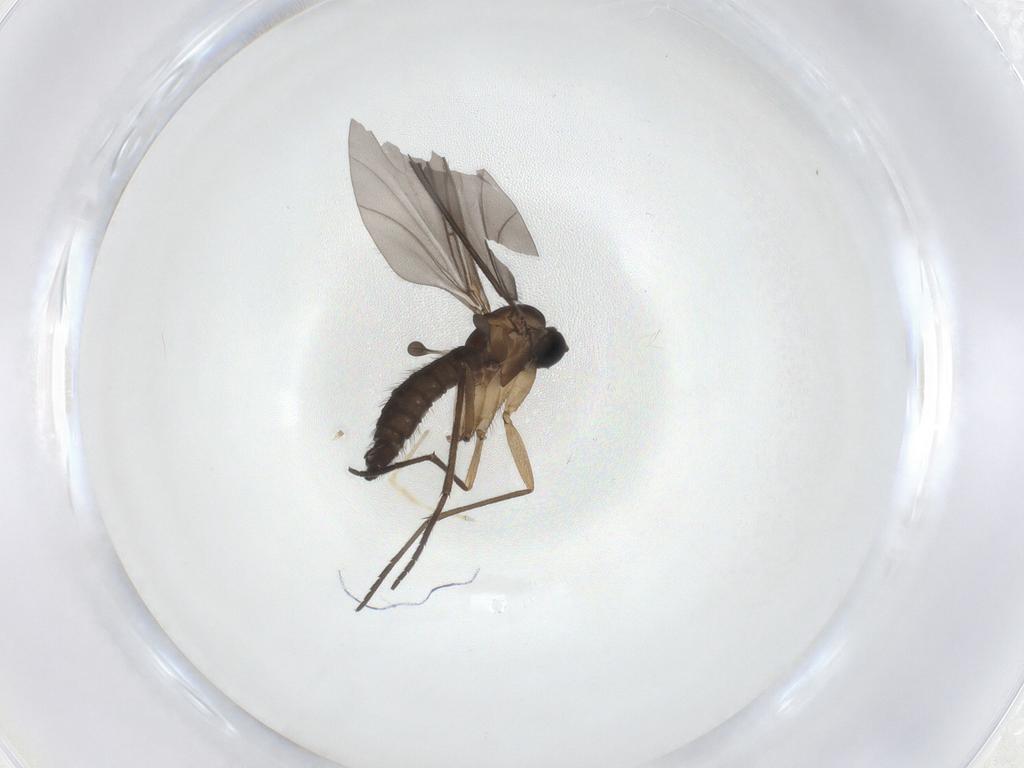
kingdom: Animalia
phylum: Arthropoda
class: Insecta
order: Diptera
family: Sciaridae
